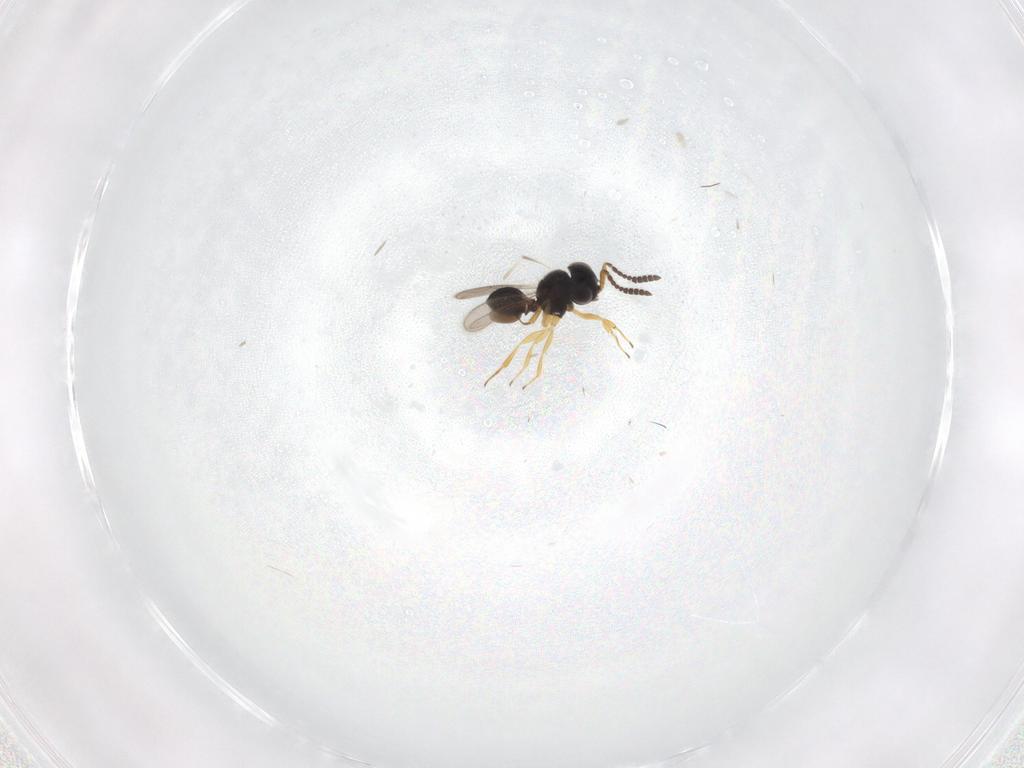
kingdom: Animalia
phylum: Arthropoda
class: Insecta
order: Hymenoptera
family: Scelionidae
